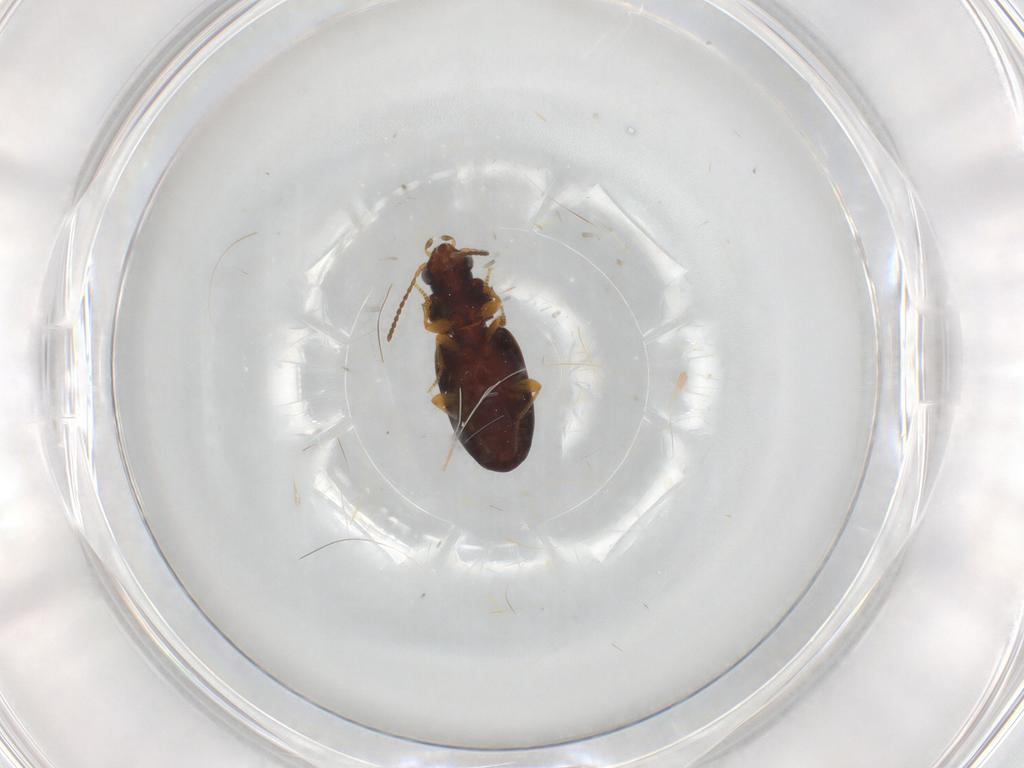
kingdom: Animalia
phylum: Arthropoda
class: Insecta
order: Coleoptera
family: Carabidae
